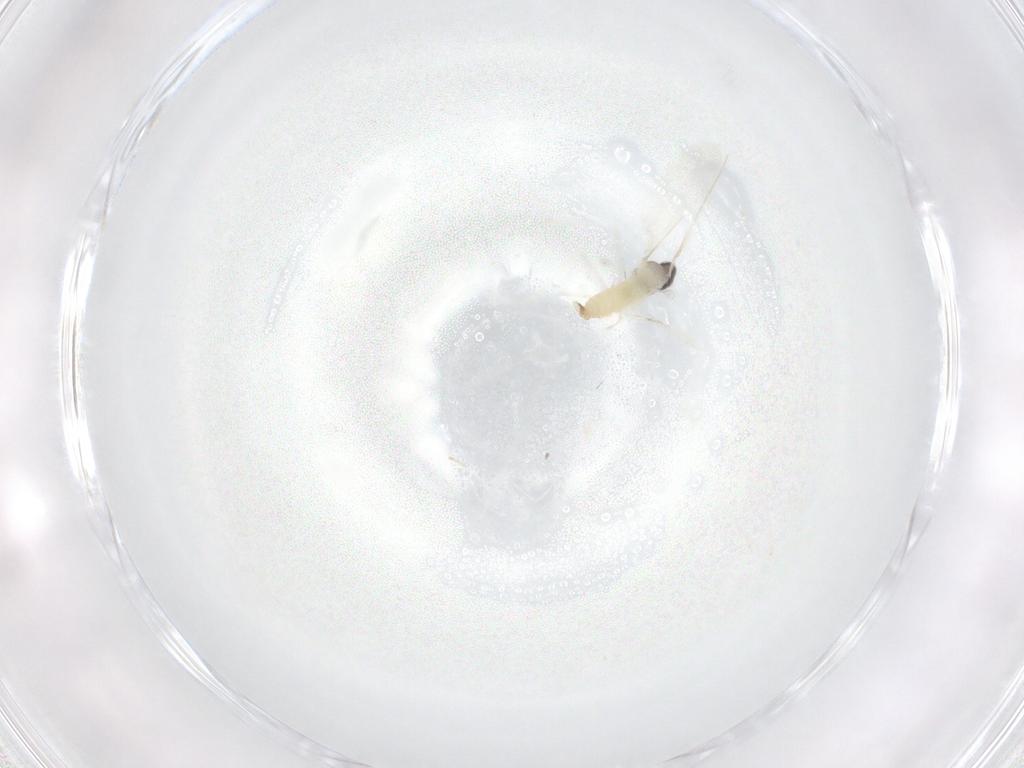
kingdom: Animalia
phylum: Arthropoda
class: Insecta
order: Diptera
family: Cecidomyiidae
